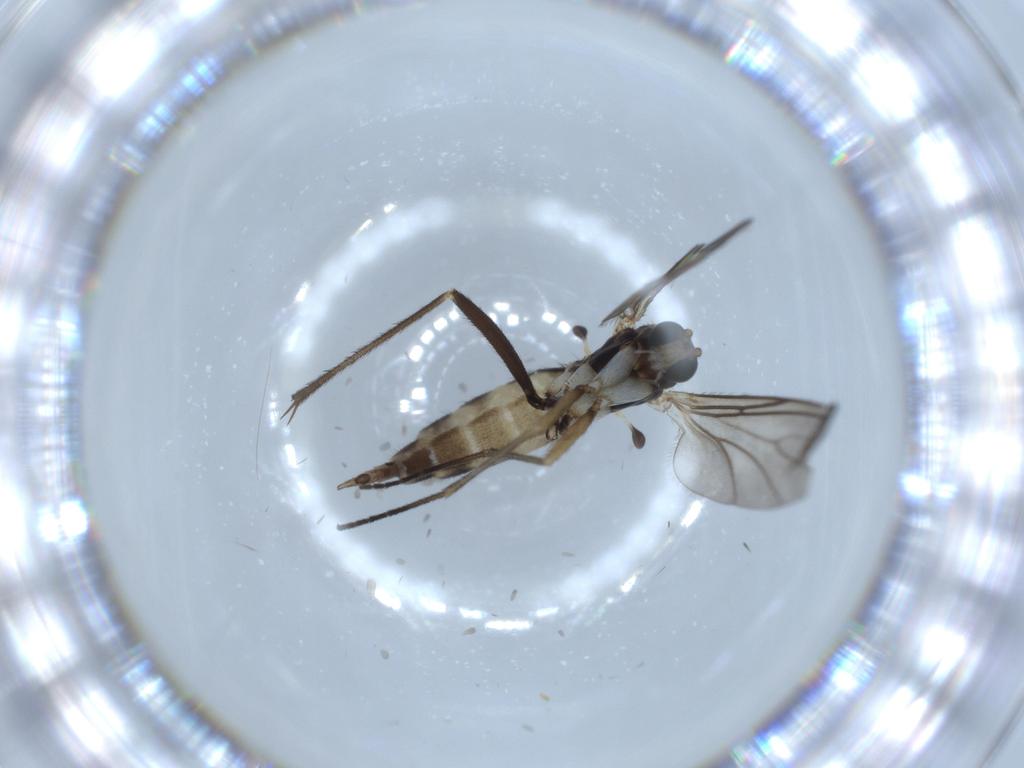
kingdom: Animalia
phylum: Arthropoda
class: Insecta
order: Diptera
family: Sciaridae
